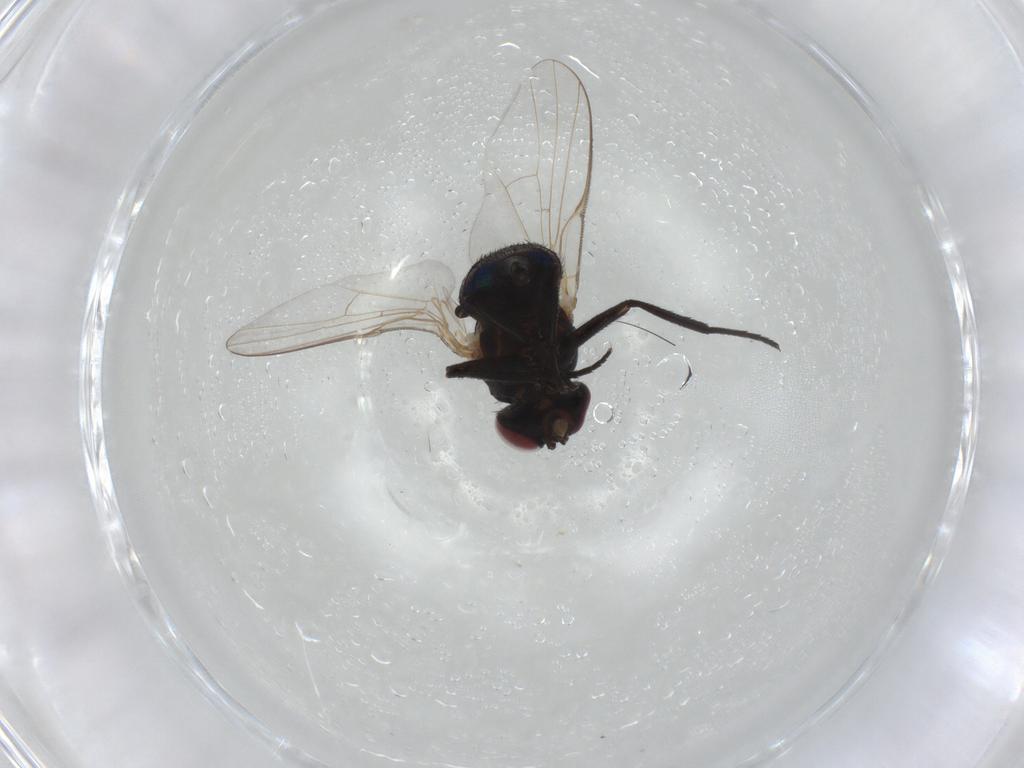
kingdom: Animalia
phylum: Arthropoda
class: Insecta
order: Diptera
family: Agromyzidae
